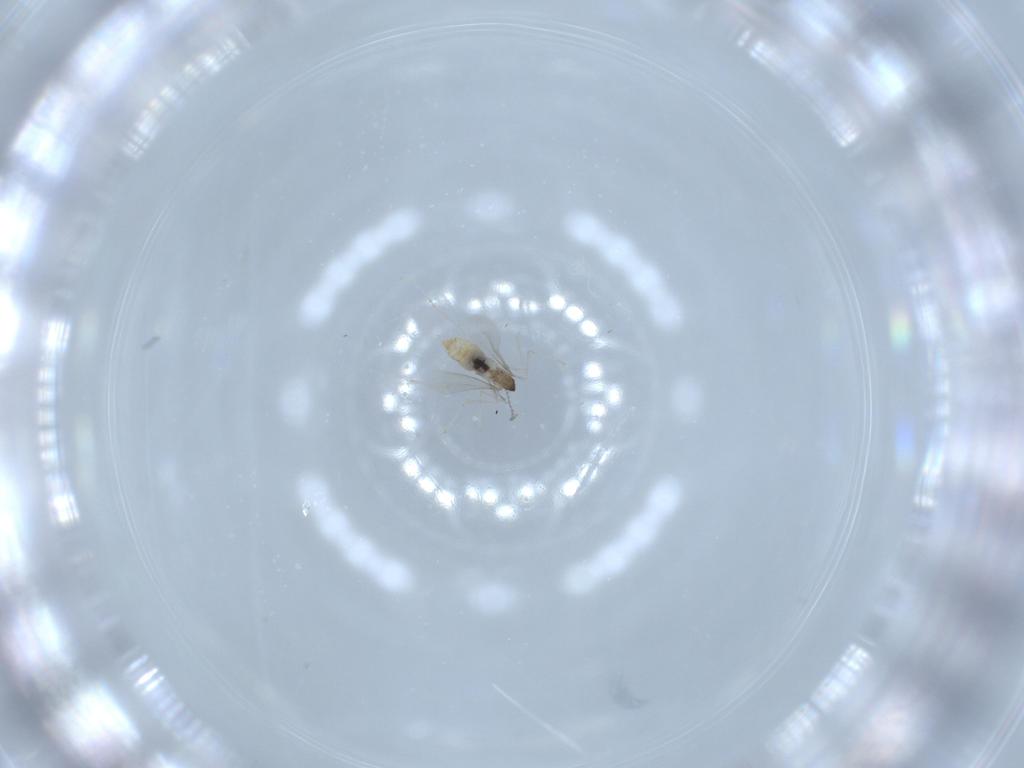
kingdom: Animalia
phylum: Arthropoda
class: Insecta
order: Diptera
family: Cecidomyiidae
